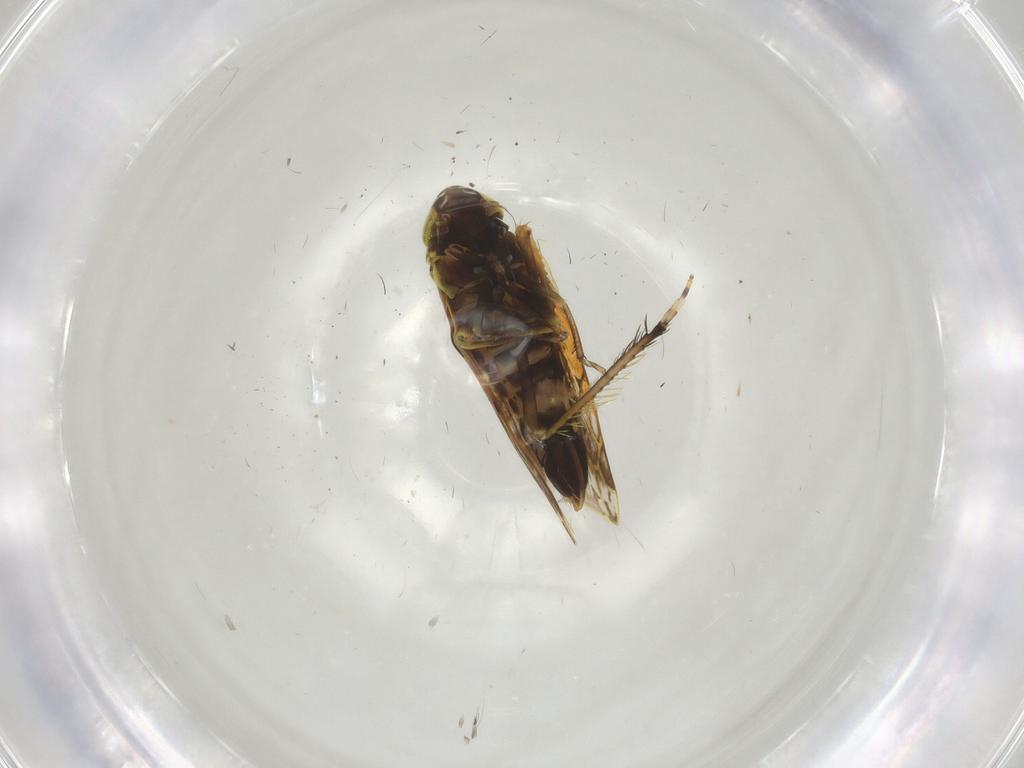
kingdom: Animalia
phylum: Arthropoda
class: Insecta
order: Hemiptera
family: Cicadellidae
